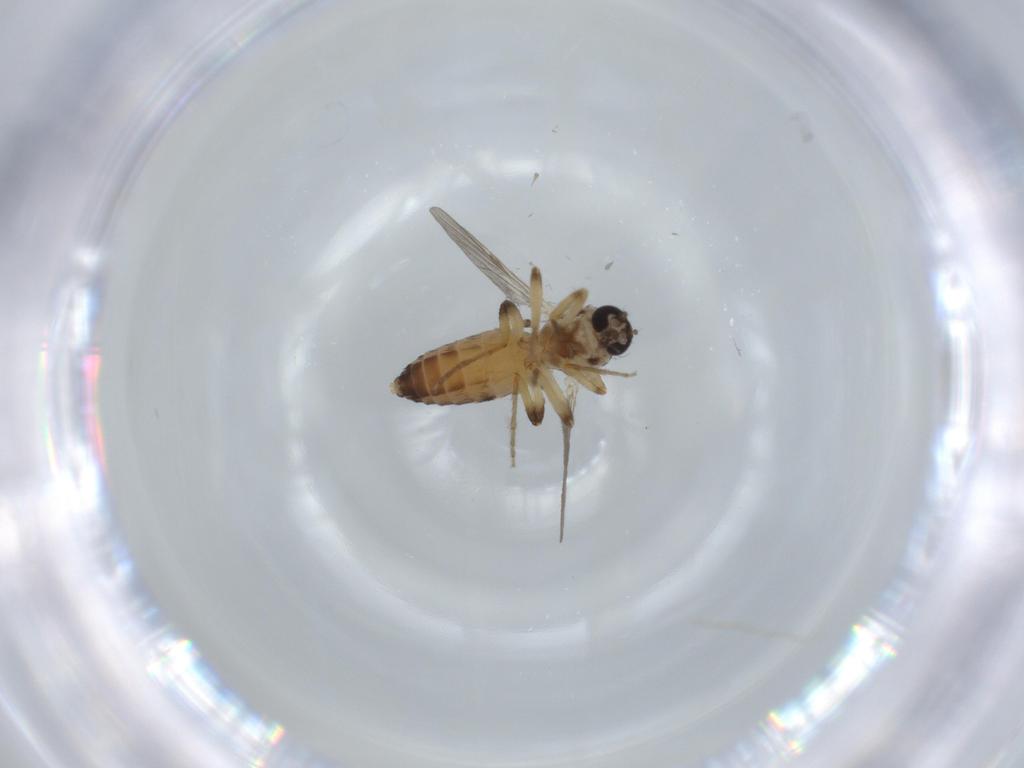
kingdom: Animalia
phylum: Arthropoda
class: Insecta
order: Diptera
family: Ceratopogonidae
